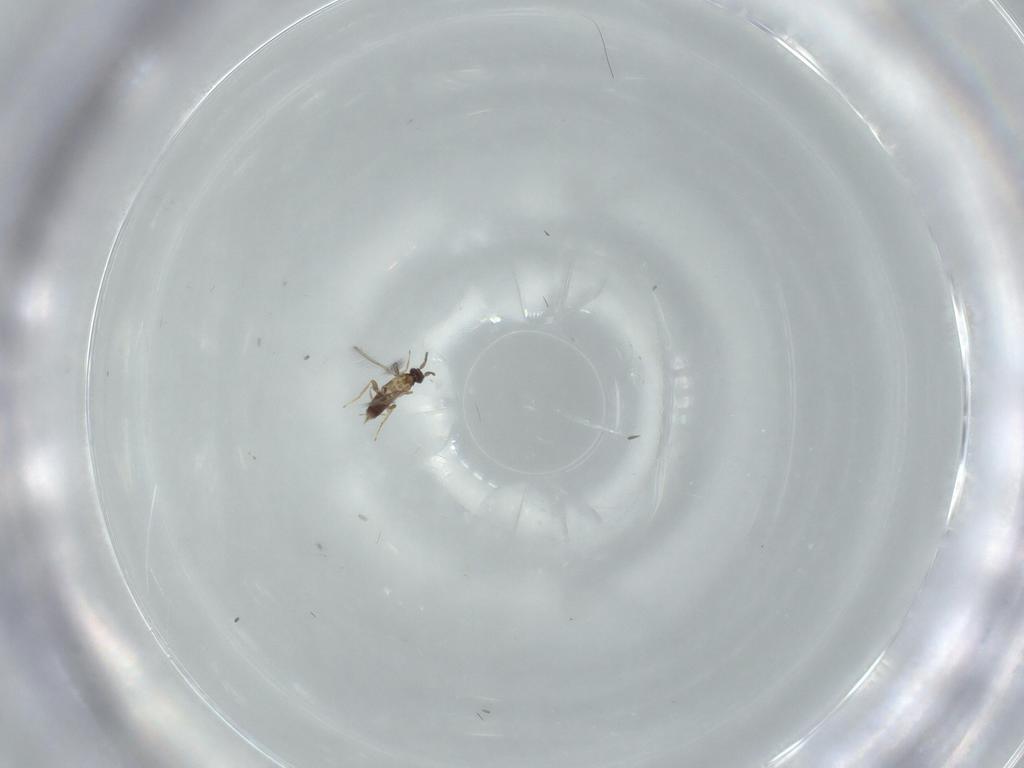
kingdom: Animalia
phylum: Arthropoda
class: Insecta
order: Hymenoptera
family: Mymaridae
